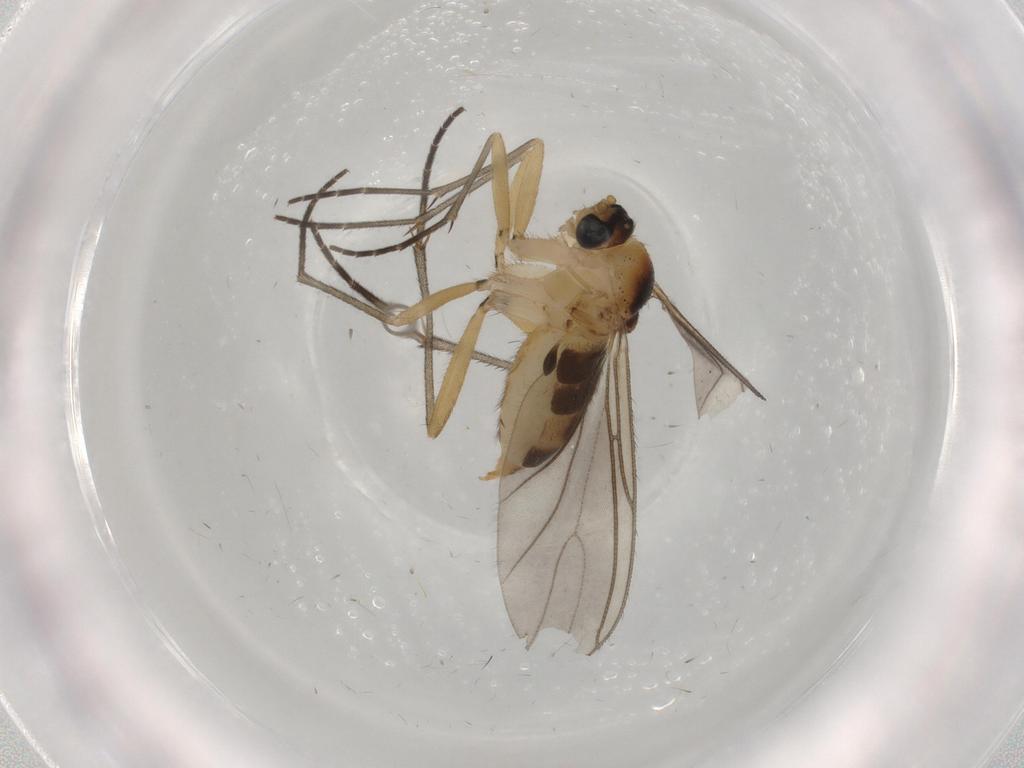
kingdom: Animalia
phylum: Arthropoda
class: Insecta
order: Diptera
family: Sciaridae
